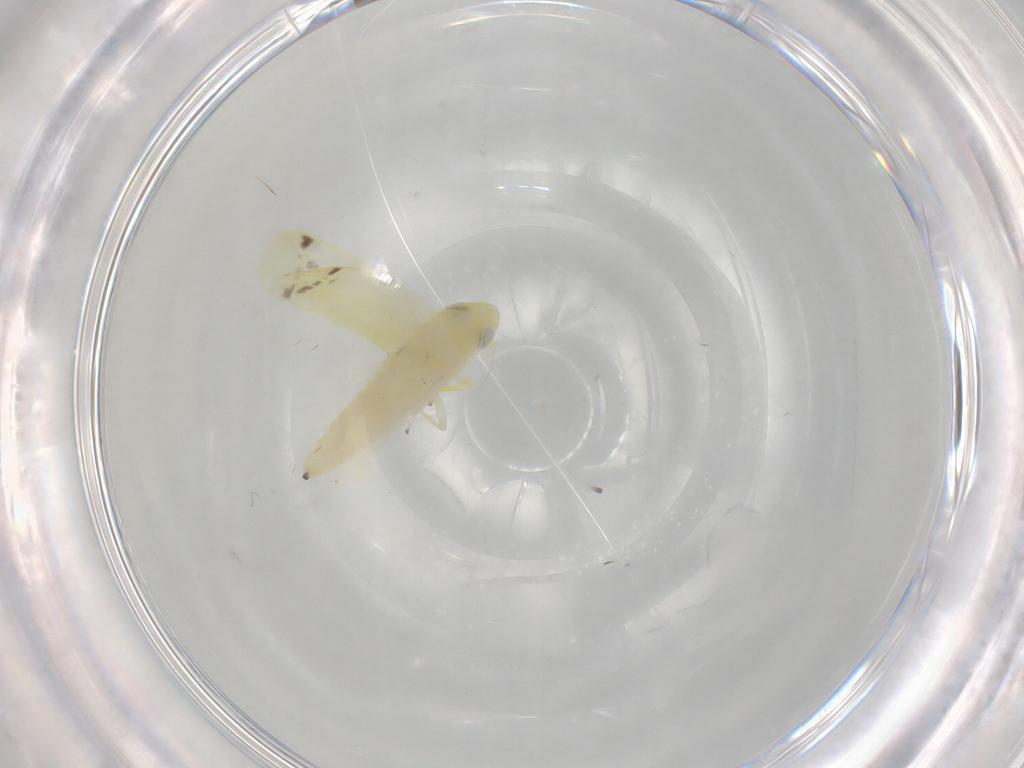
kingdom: Animalia
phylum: Arthropoda
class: Insecta
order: Hemiptera
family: Cicadellidae
